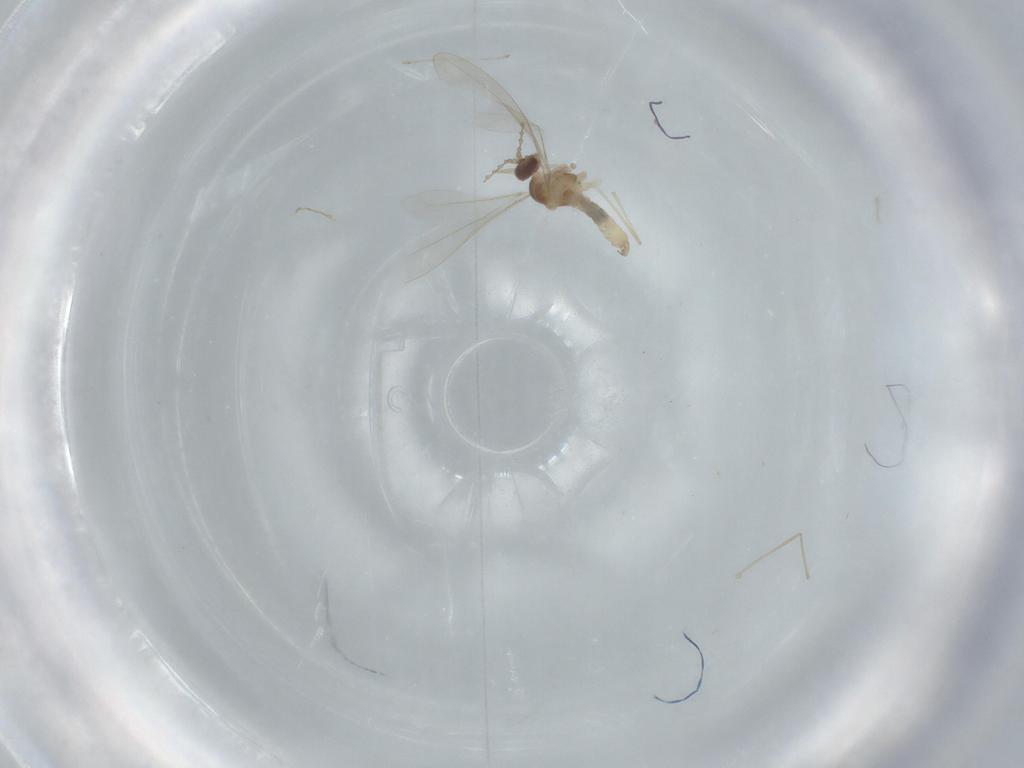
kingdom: Animalia
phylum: Arthropoda
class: Insecta
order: Diptera
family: Cecidomyiidae
